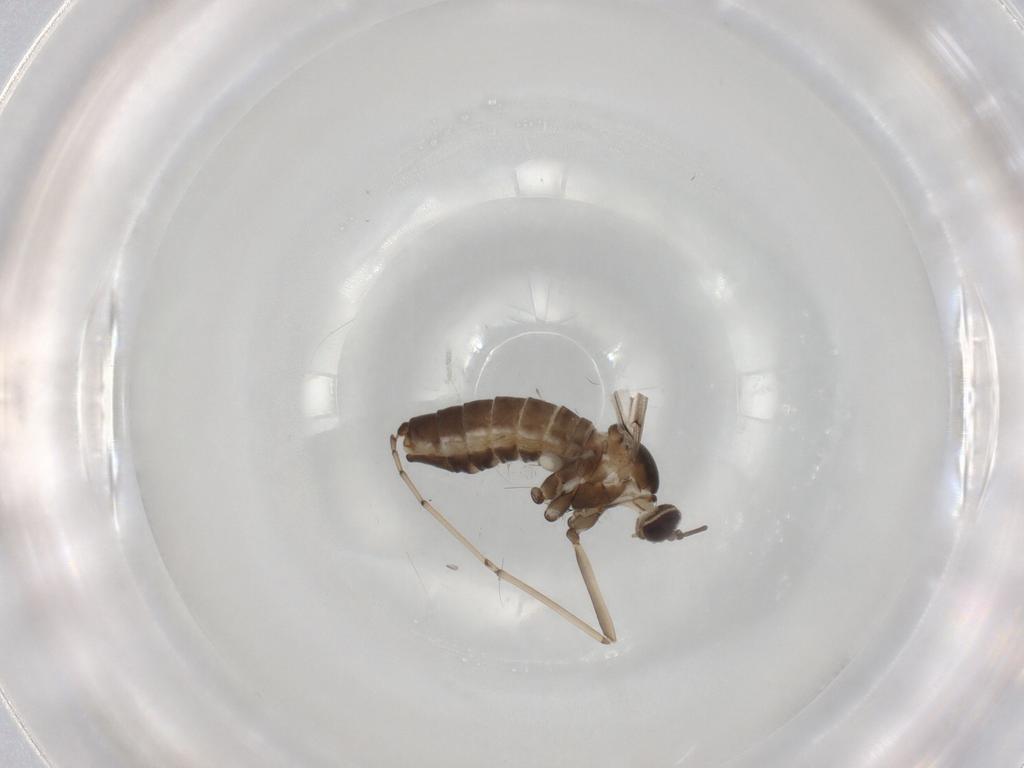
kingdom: Animalia
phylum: Arthropoda
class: Insecta
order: Diptera
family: Cecidomyiidae
